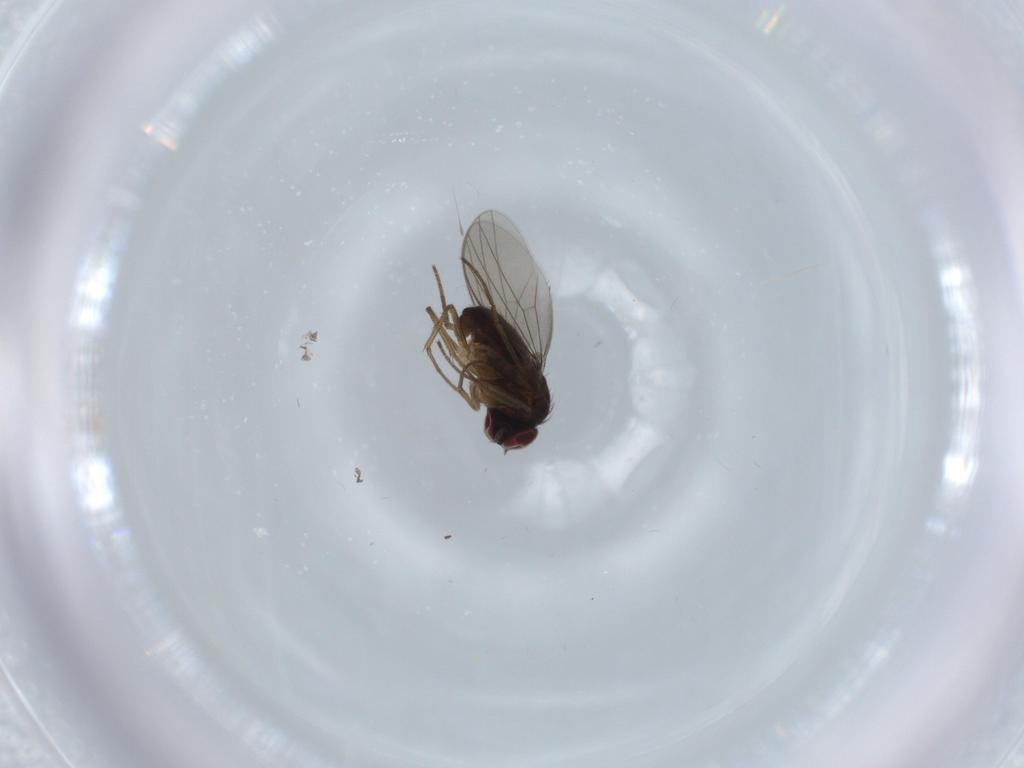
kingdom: Animalia
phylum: Arthropoda
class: Insecta
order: Diptera
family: Dolichopodidae
